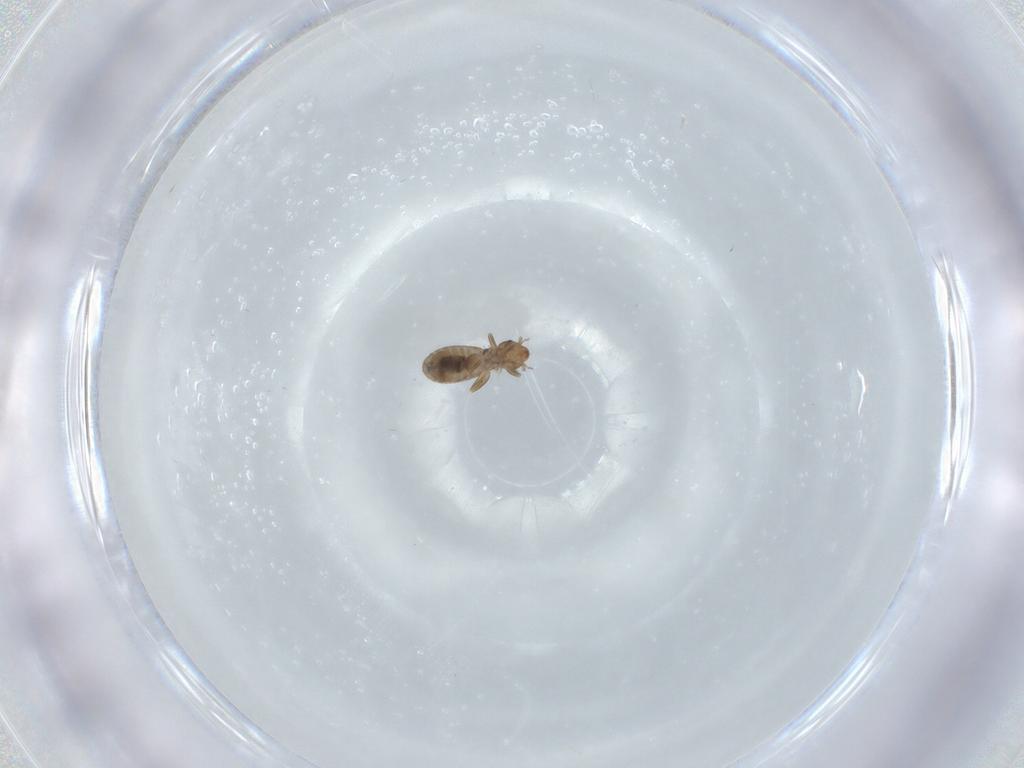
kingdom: Animalia
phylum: Arthropoda
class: Insecta
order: Psocodea
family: Liposcelididae
